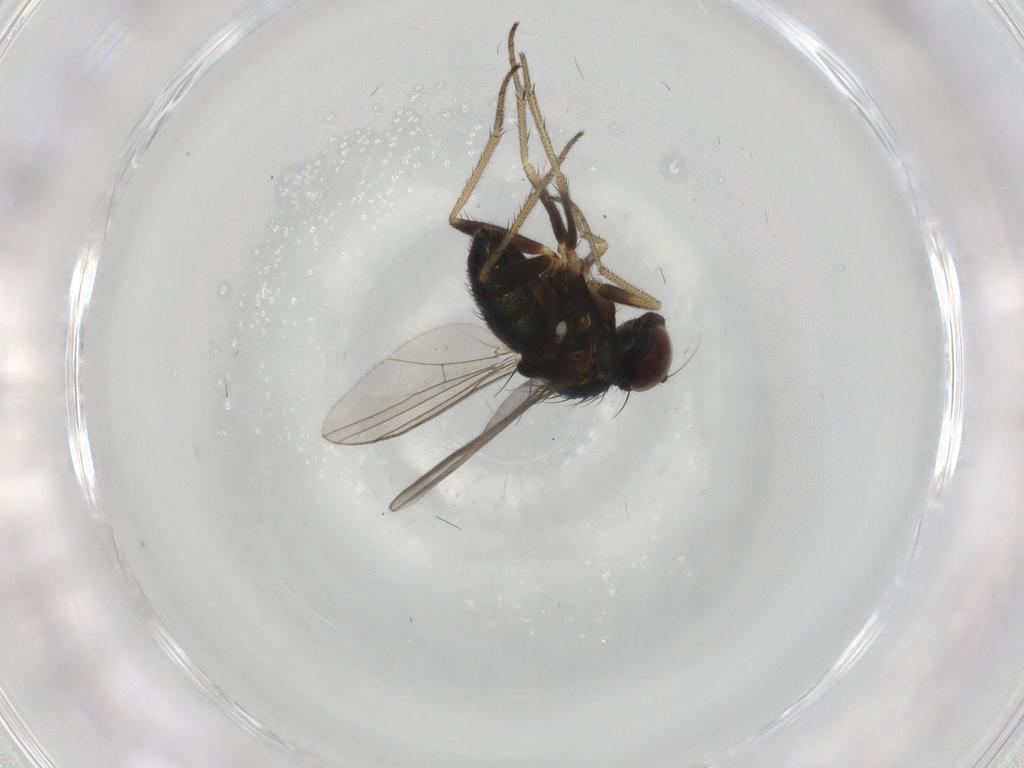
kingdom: Animalia
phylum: Arthropoda
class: Insecta
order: Diptera
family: Dolichopodidae
